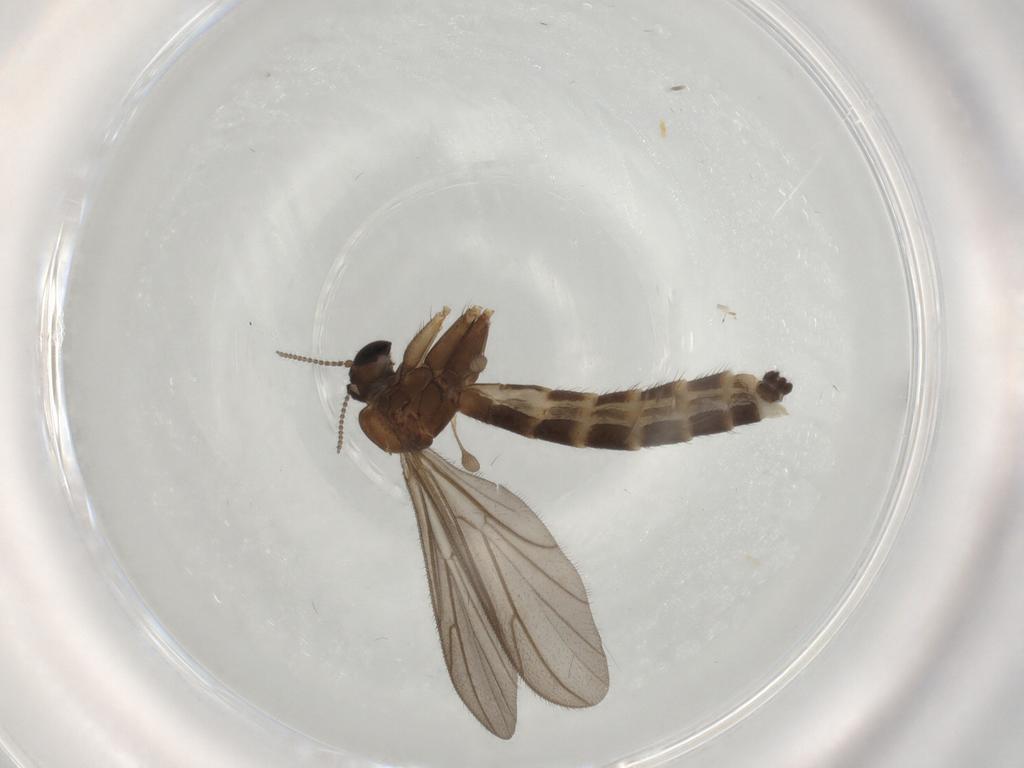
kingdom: Animalia
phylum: Arthropoda
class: Insecta
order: Diptera
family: Keroplatidae
